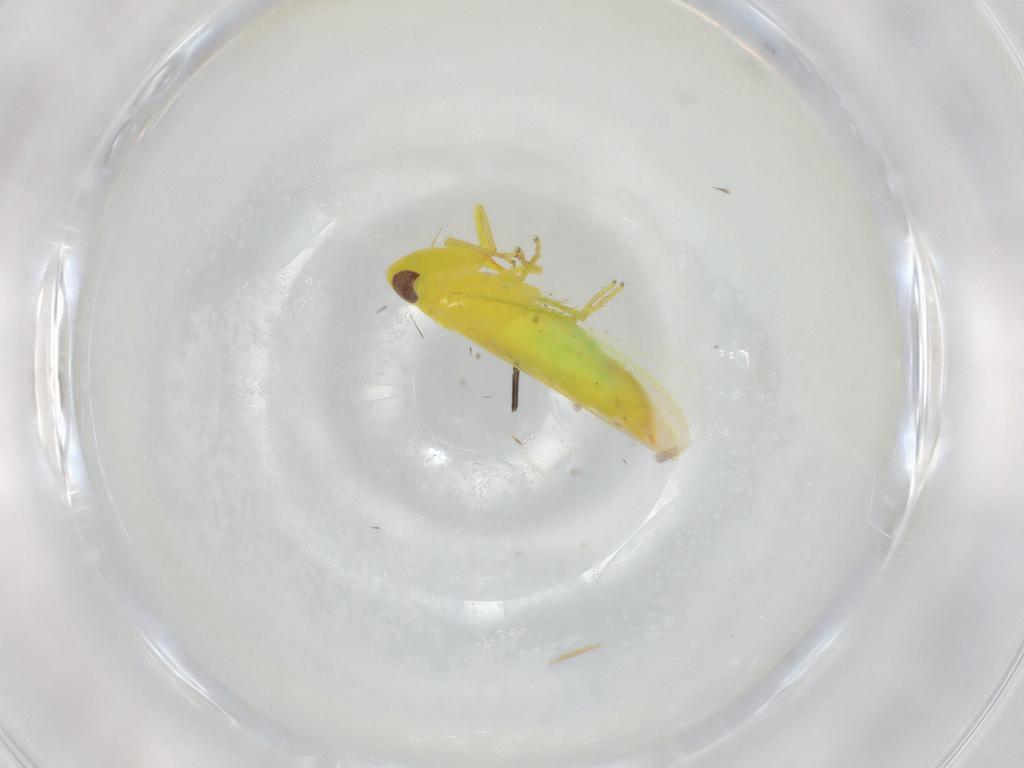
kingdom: Animalia
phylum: Arthropoda
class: Insecta
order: Hemiptera
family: Cicadellidae
